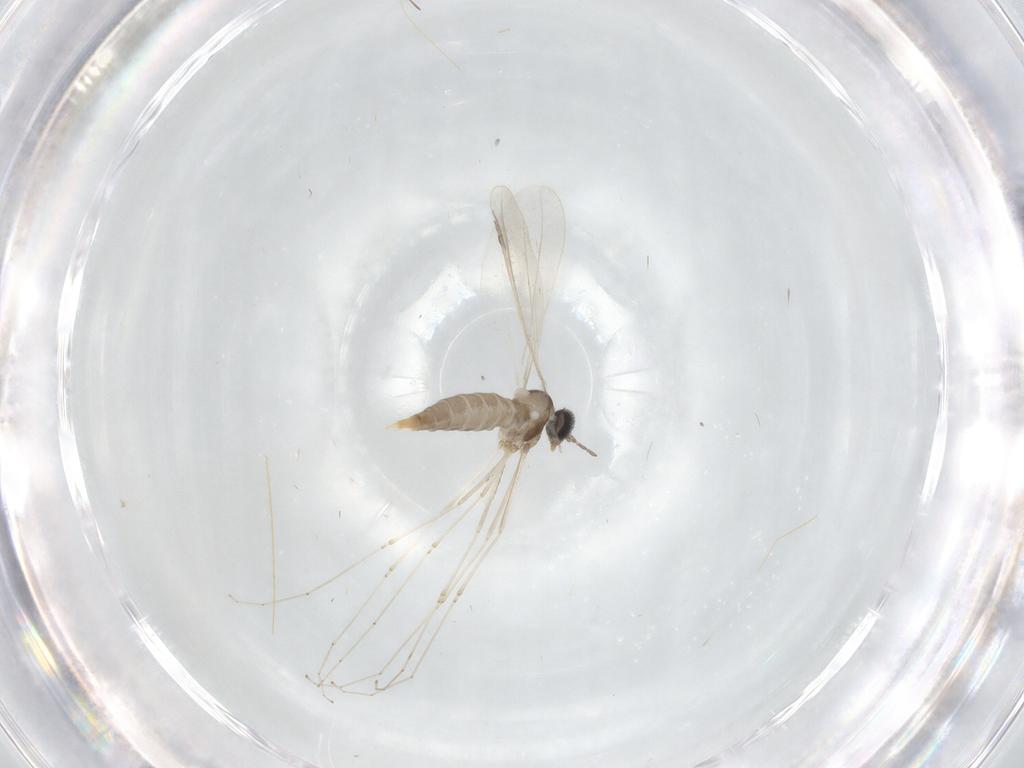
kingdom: Animalia
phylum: Arthropoda
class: Insecta
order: Diptera
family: Cecidomyiidae
